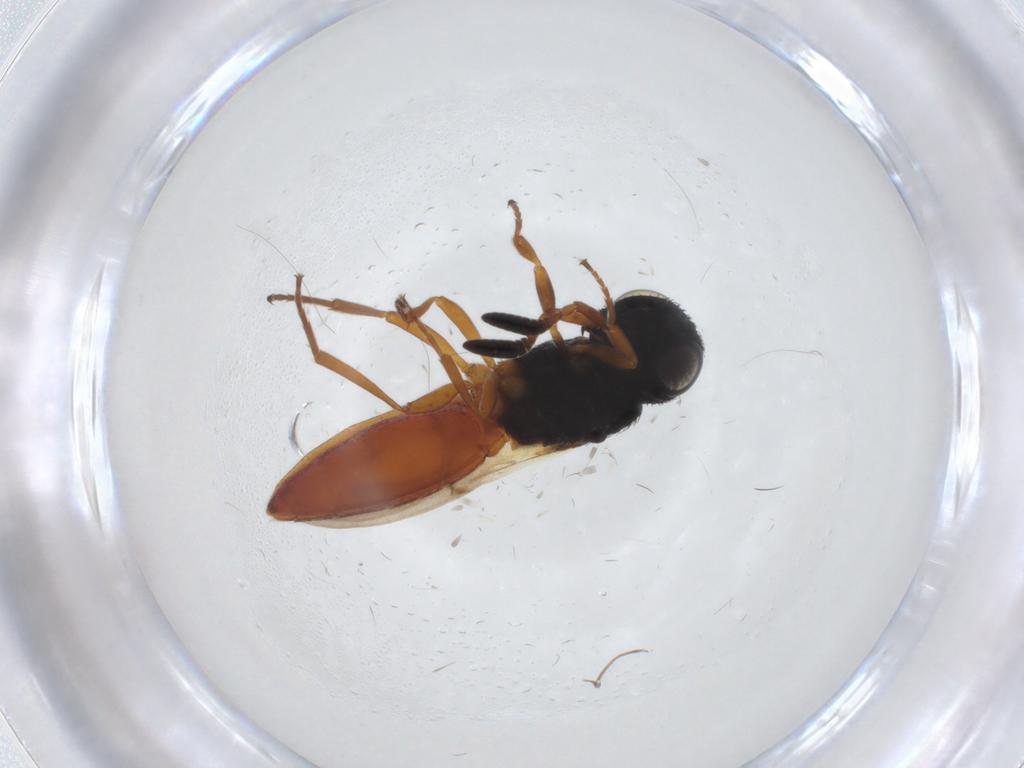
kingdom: Animalia
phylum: Arthropoda
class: Insecta
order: Hymenoptera
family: Scelionidae
